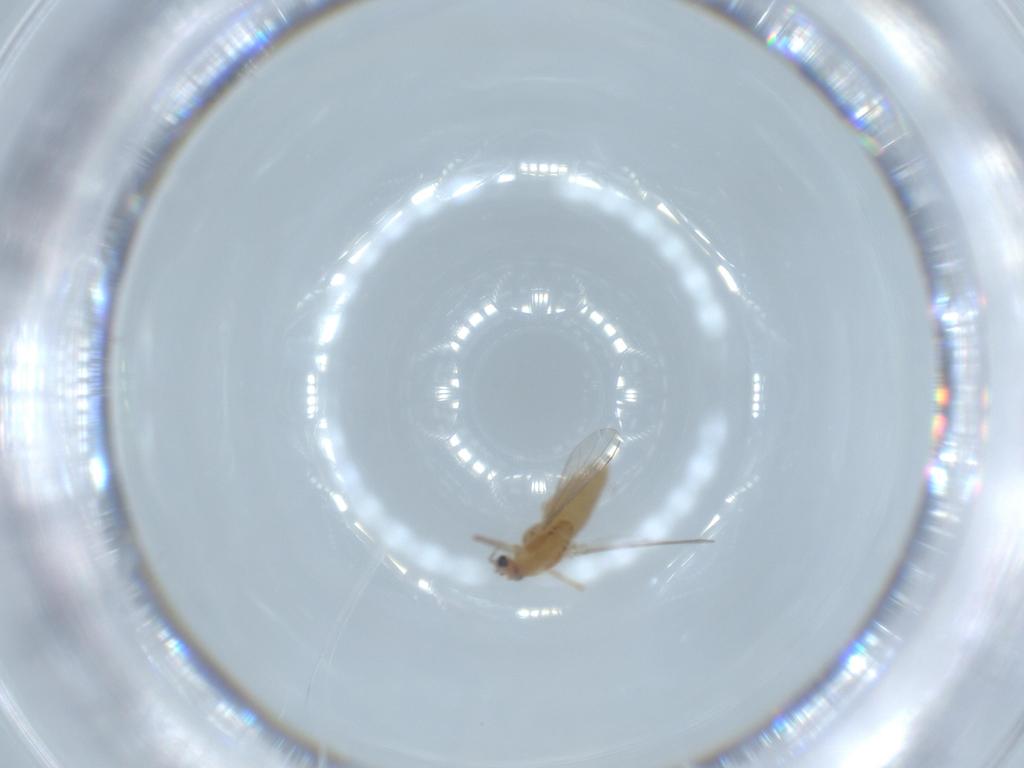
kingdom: Animalia
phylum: Arthropoda
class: Insecta
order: Diptera
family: Chironomidae
